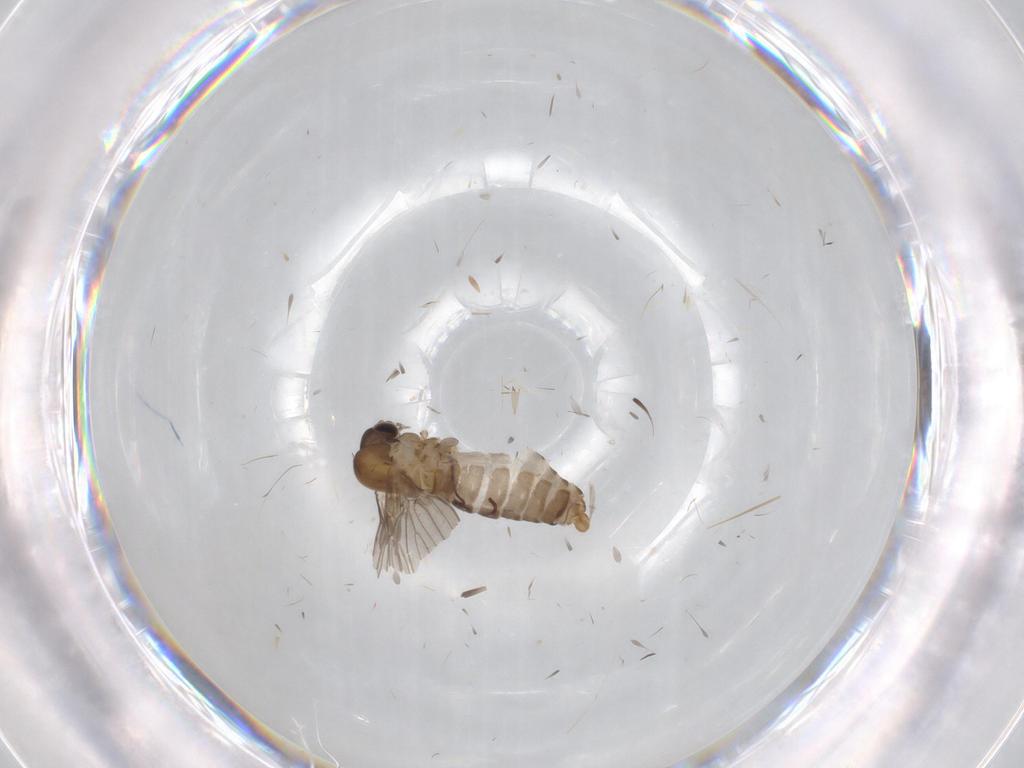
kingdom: Animalia
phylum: Arthropoda
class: Insecta
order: Diptera
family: Psychodidae
